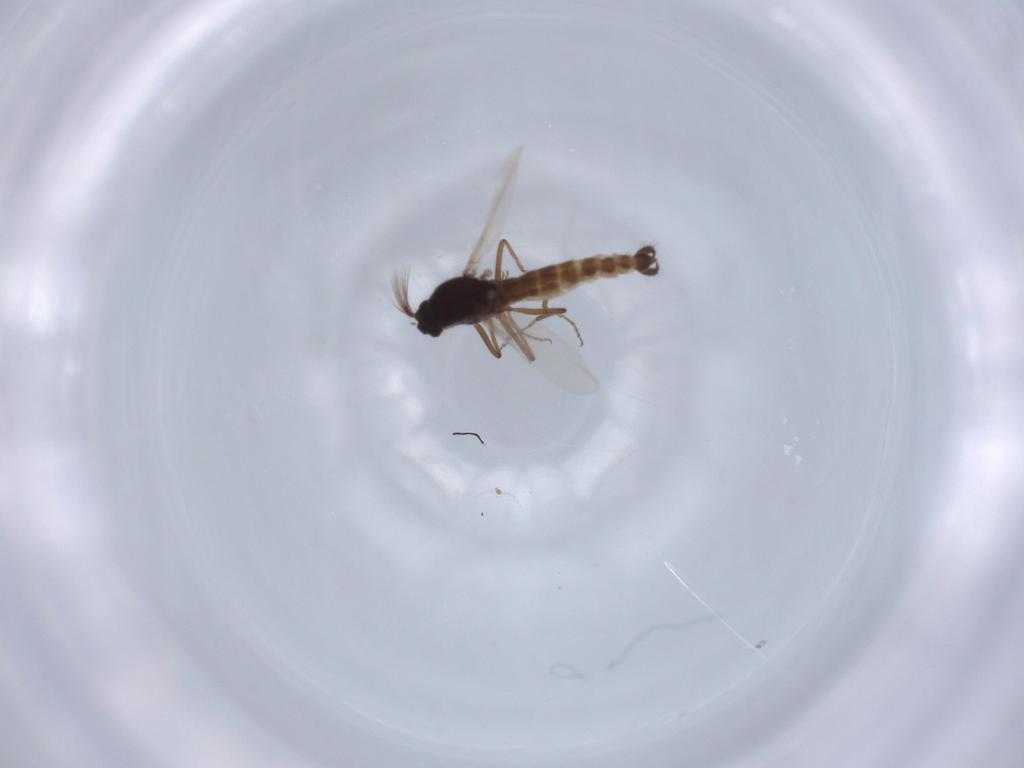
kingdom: Animalia
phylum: Arthropoda
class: Insecta
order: Diptera
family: Ceratopogonidae
